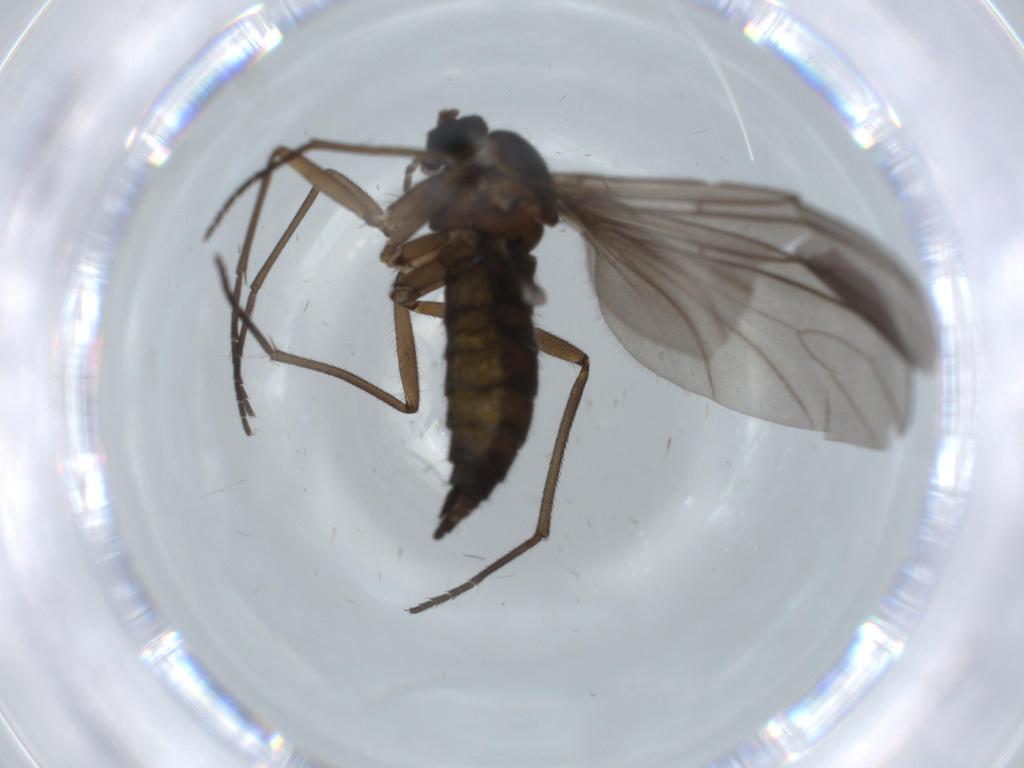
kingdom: Animalia
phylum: Arthropoda
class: Insecta
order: Diptera
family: Sciaridae
